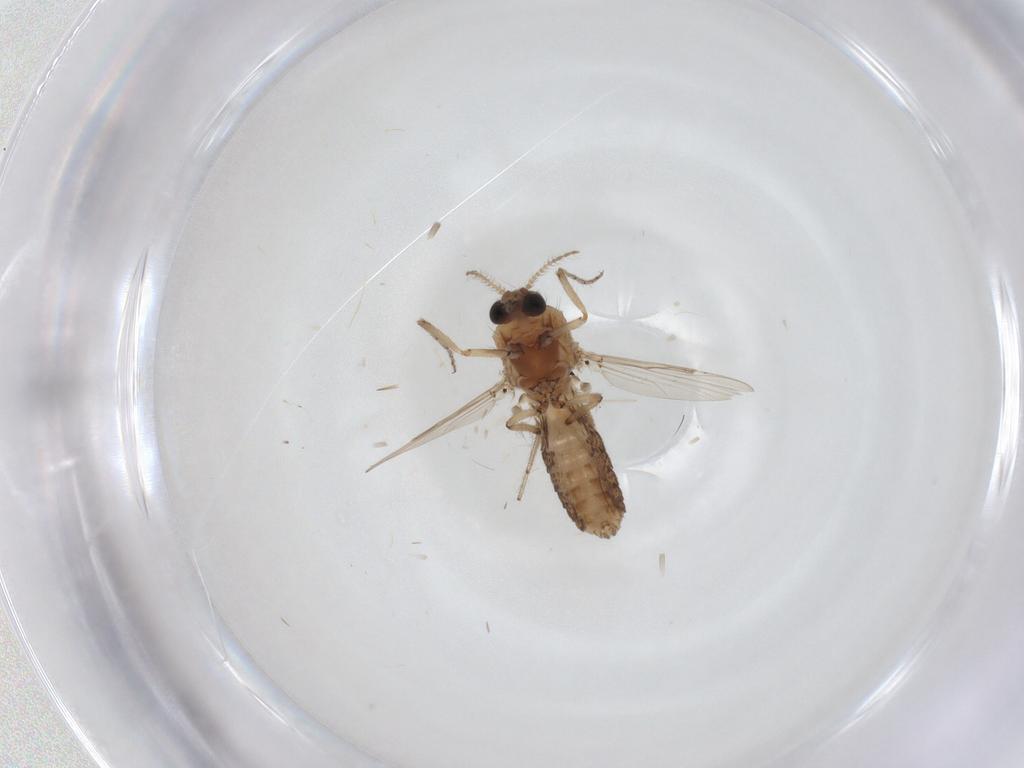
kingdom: Animalia
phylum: Arthropoda
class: Insecta
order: Diptera
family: Ceratopogonidae
